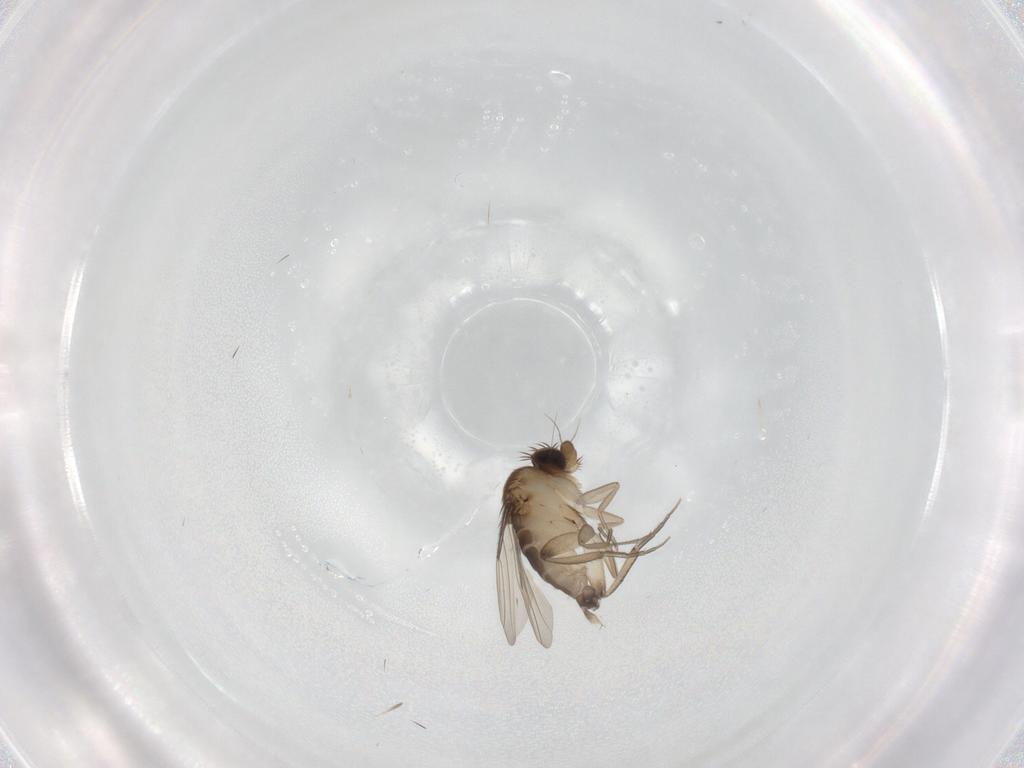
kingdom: Animalia
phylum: Arthropoda
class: Insecta
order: Diptera
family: Phoridae
